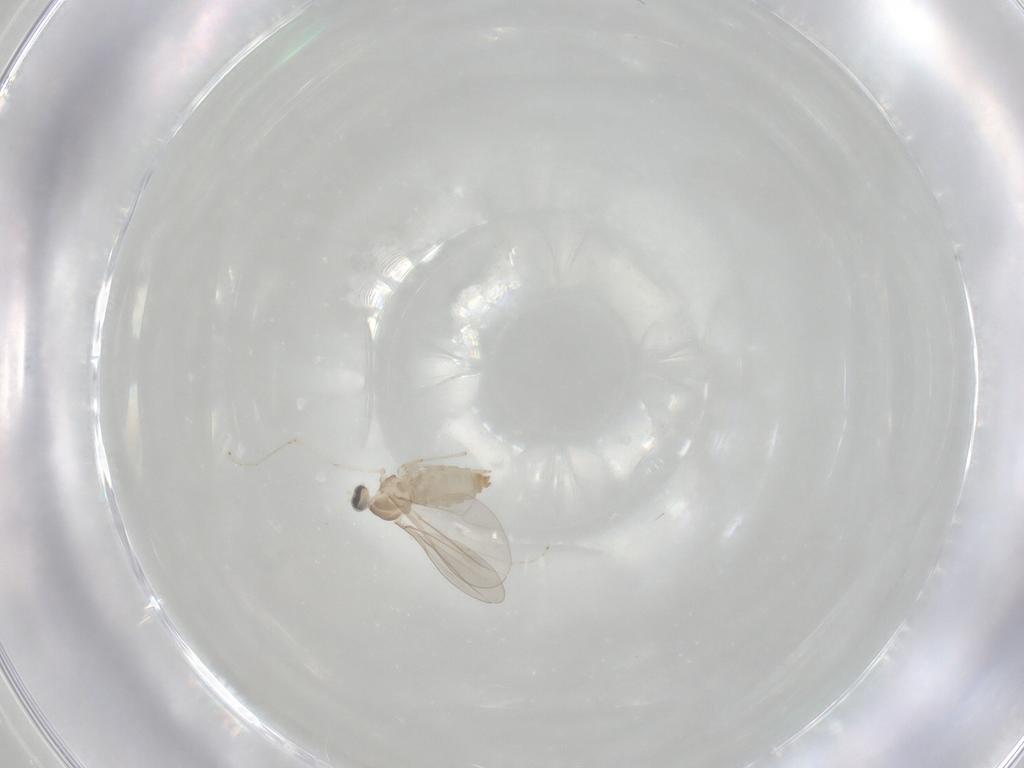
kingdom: Animalia
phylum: Arthropoda
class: Insecta
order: Diptera
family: Cecidomyiidae
